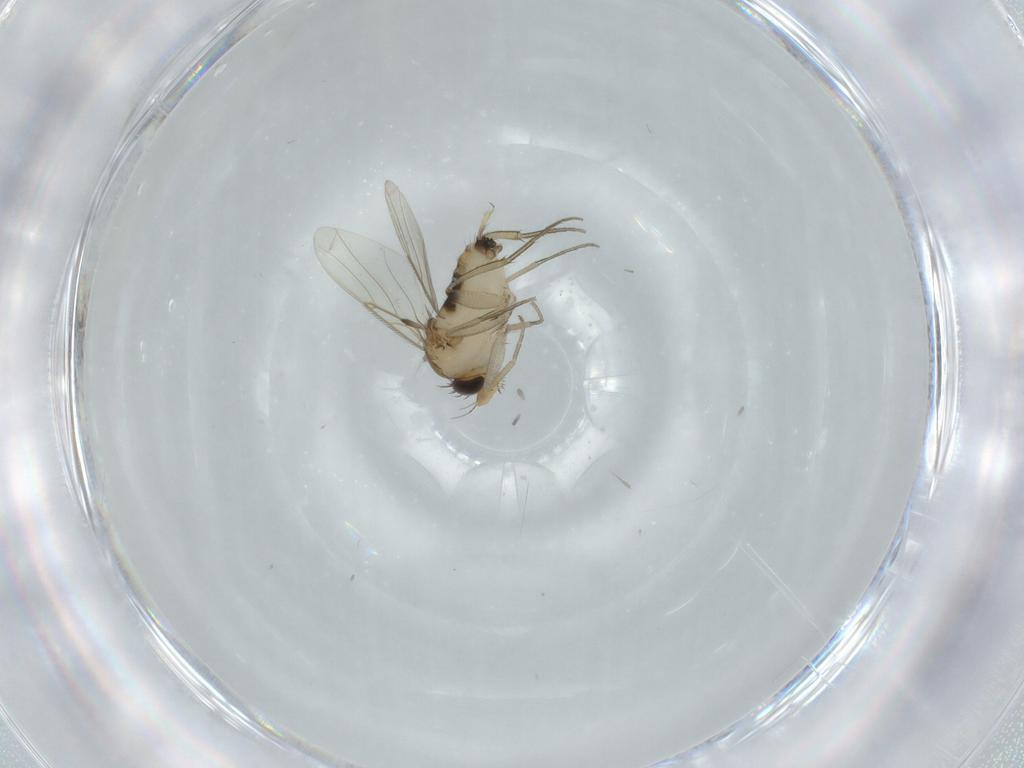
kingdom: Animalia
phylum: Arthropoda
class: Insecta
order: Diptera
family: Phoridae
